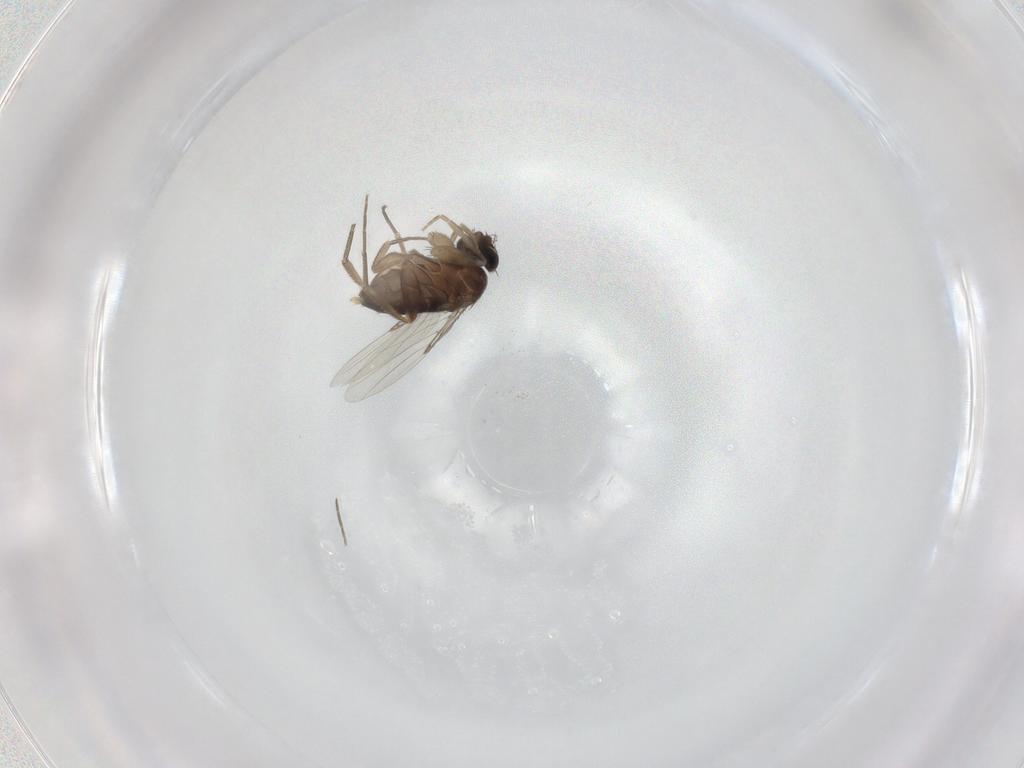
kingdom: Animalia
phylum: Arthropoda
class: Insecta
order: Diptera
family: Phoridae
